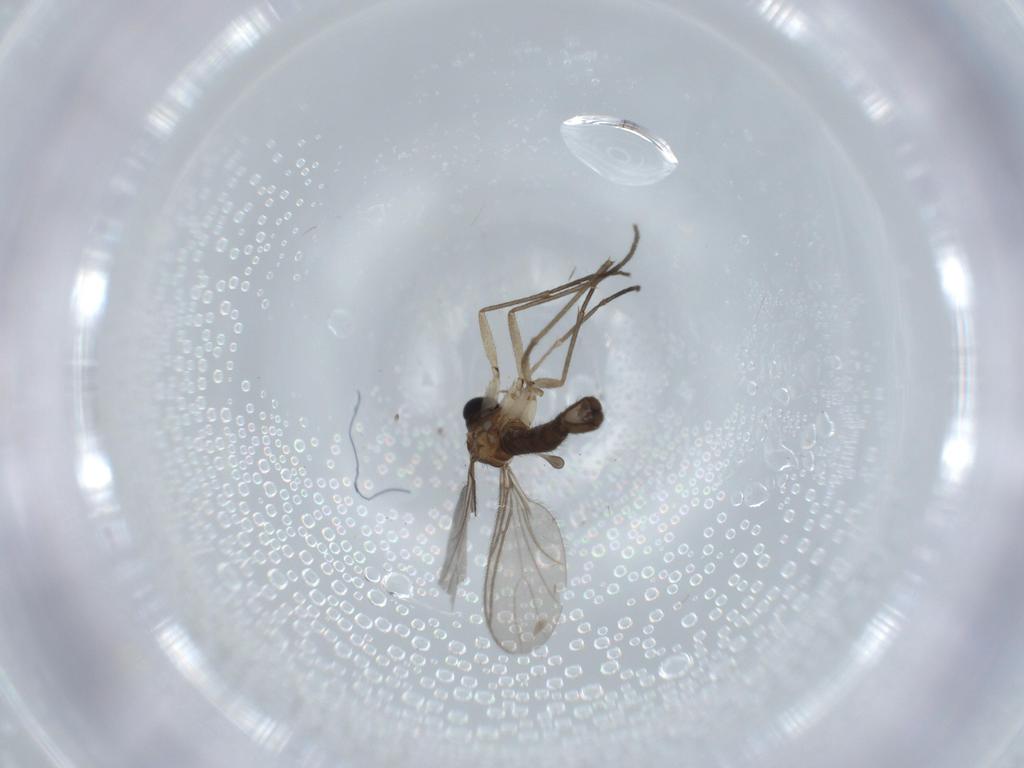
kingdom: Animalia
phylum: Arthropoda
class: Insecta
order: Diptera
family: Sciaridae
